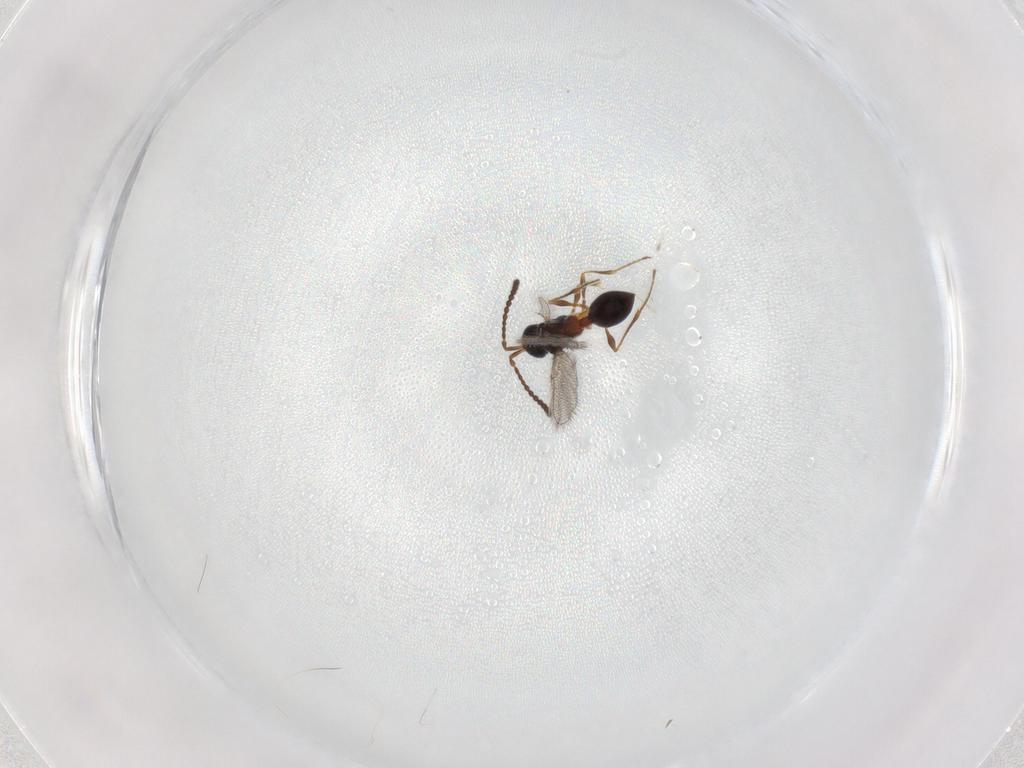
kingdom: Animalia
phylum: Arthropoda
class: Insecta
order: Hymenoptera
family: Diapriidae
